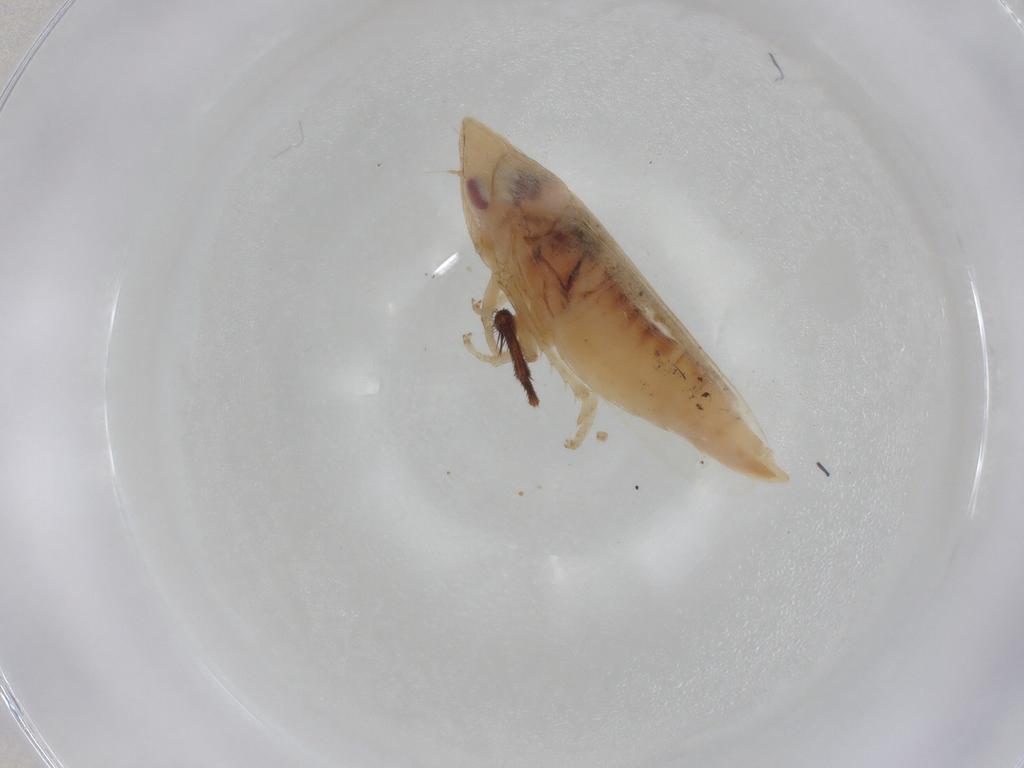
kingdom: Animalia
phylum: Arthropoda
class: Insecta
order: Hemiptera
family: Cicadellidae
